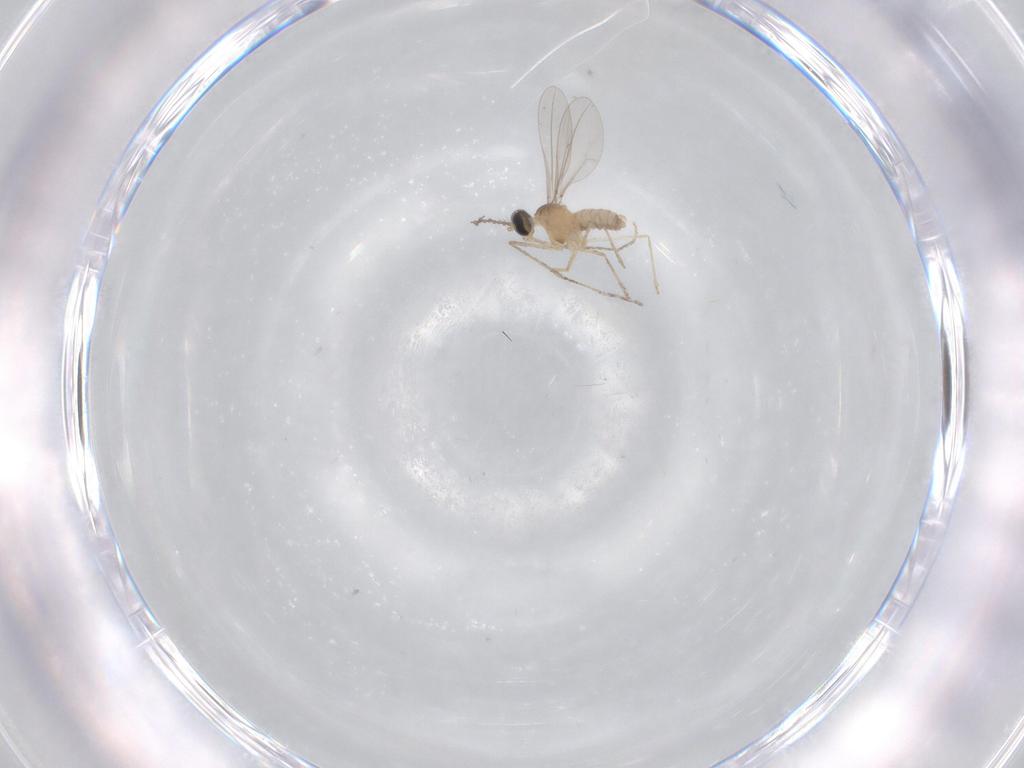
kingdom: Animalia
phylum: Arthropoda
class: Insecta
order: Diptera
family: Cecidomyiidae
